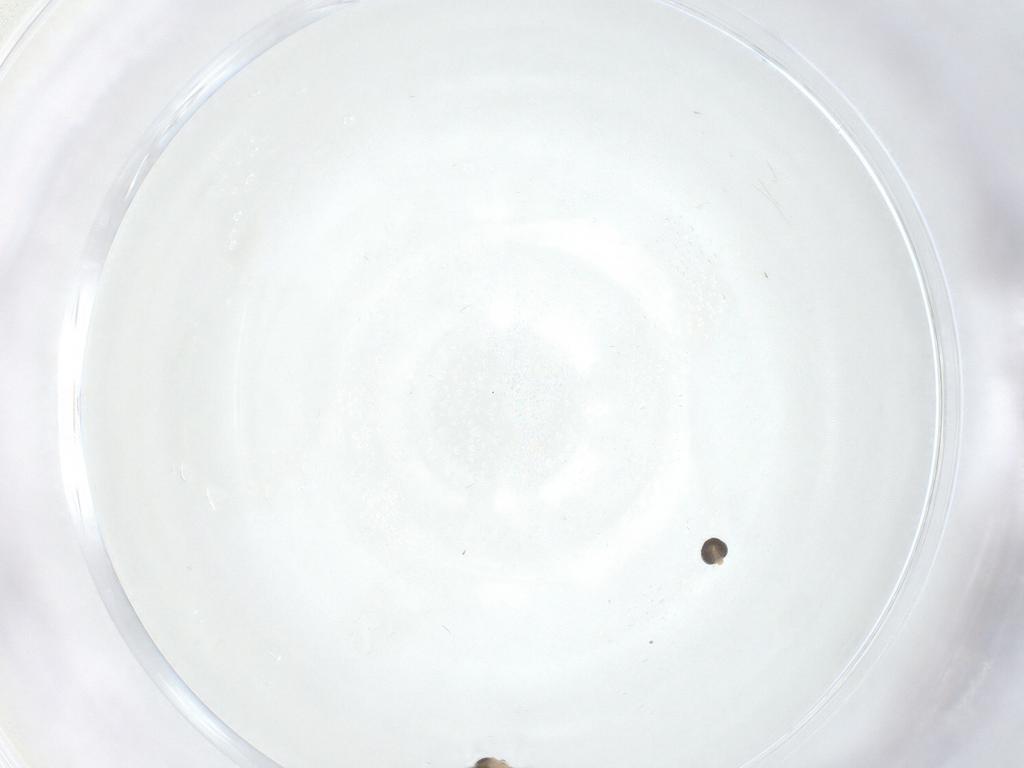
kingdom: Animalia
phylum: Arthropoda
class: Insecta
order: Diptera
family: Cecidomyiidae
